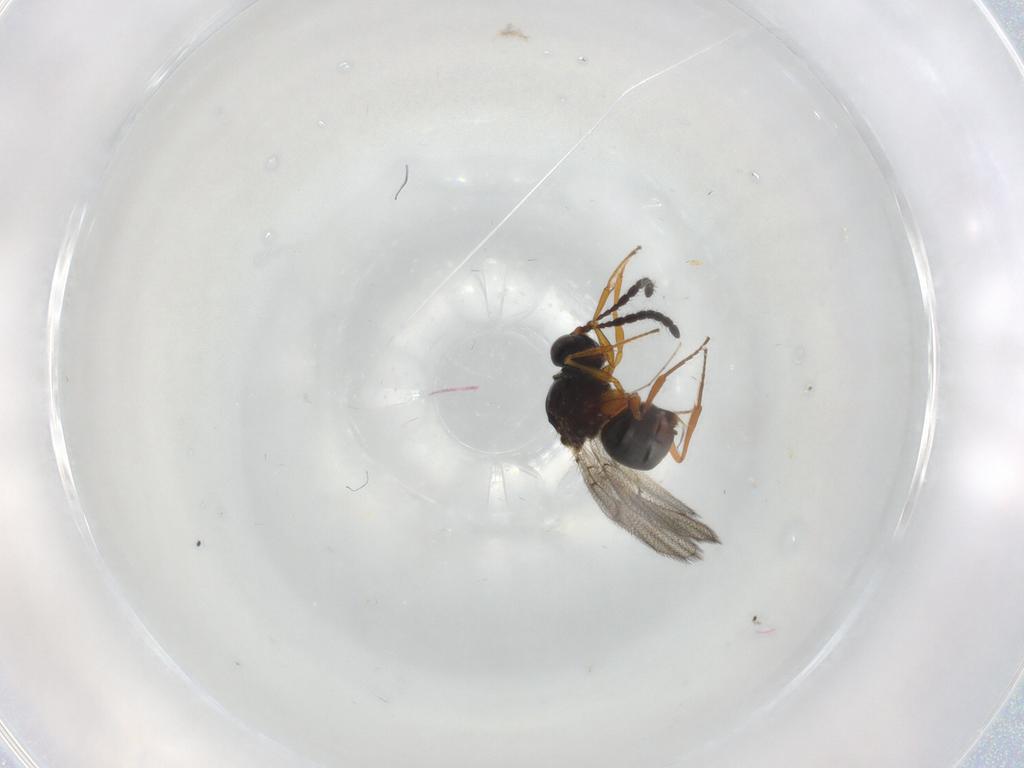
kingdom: Animalia
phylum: Arthropoda
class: Insecta
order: Hymenoptera
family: Figitidae
